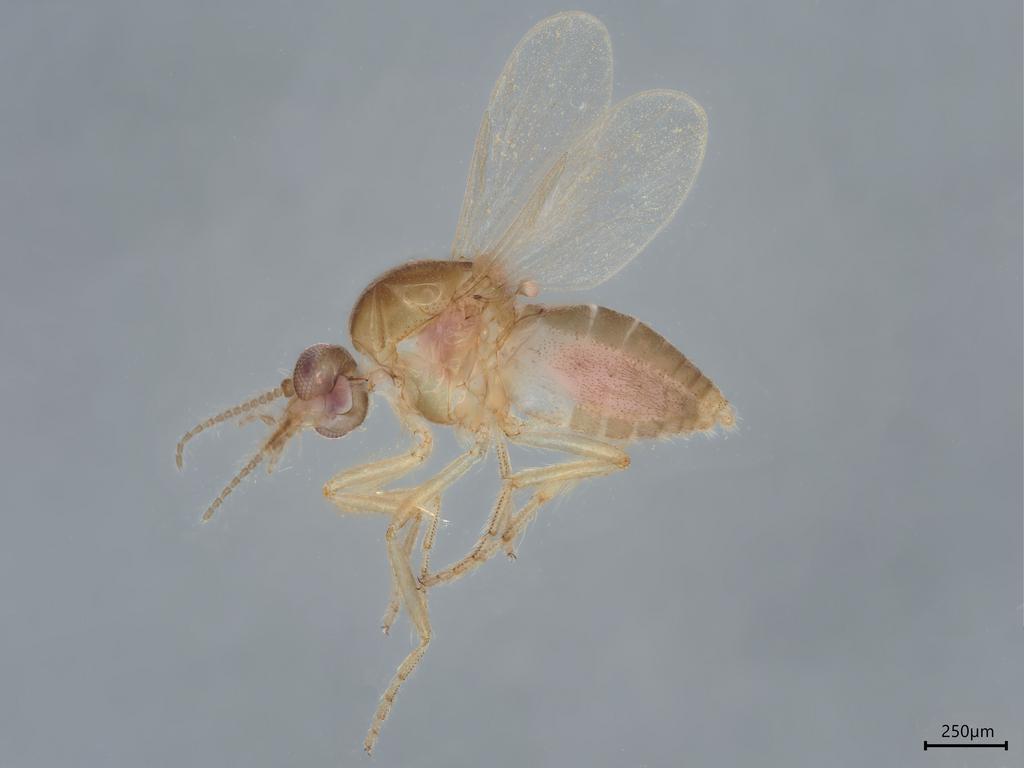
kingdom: Animalia
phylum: Arthropoda
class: Insecta
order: Diptera
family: Ceratopogonidae
